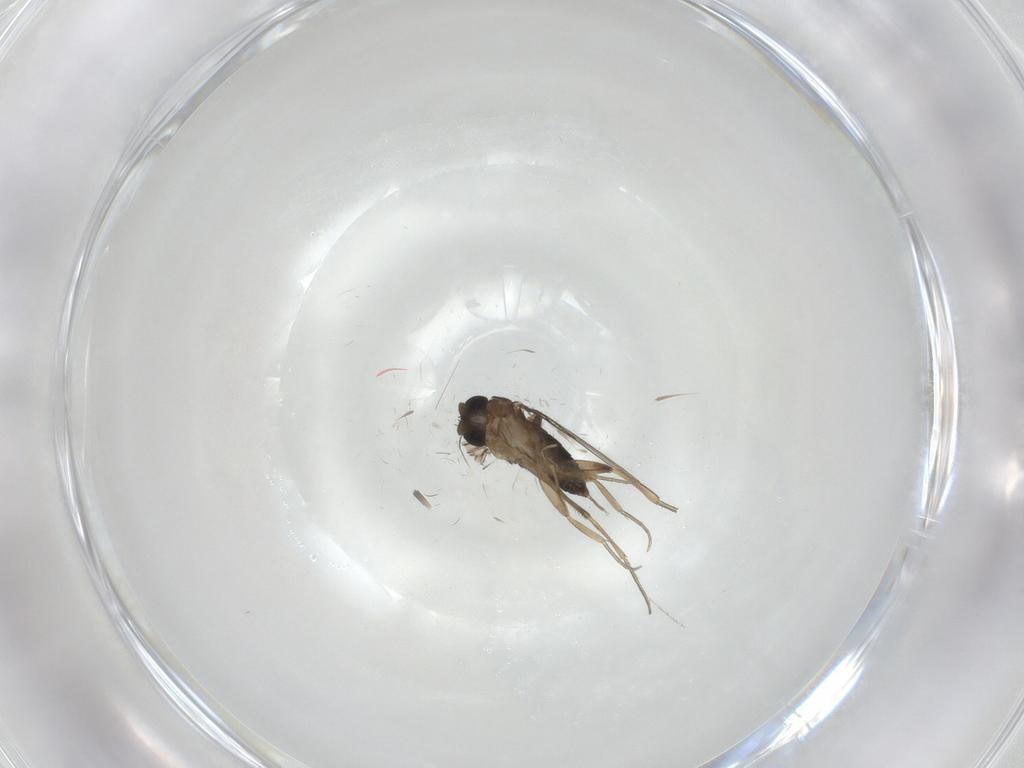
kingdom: Animalia
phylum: Arthropoda
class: Insecta
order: Diptera
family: Phoridae
